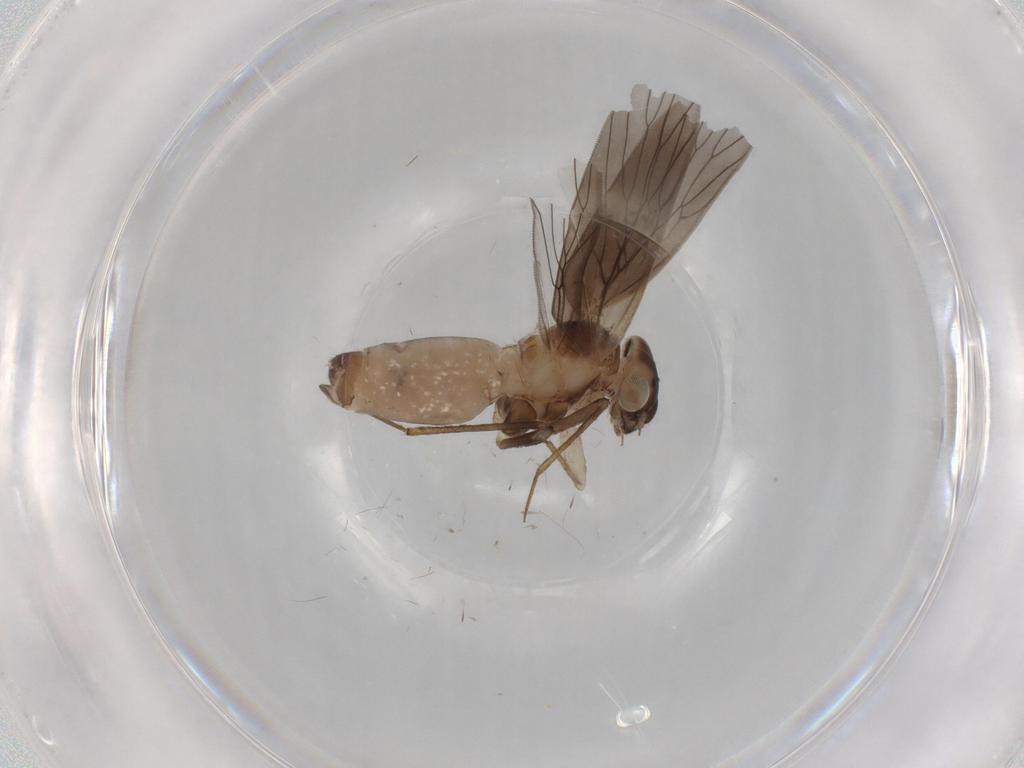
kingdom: Animalia
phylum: Arthropoda
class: Insecta
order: Psocodea
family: Lepidopsocidae
